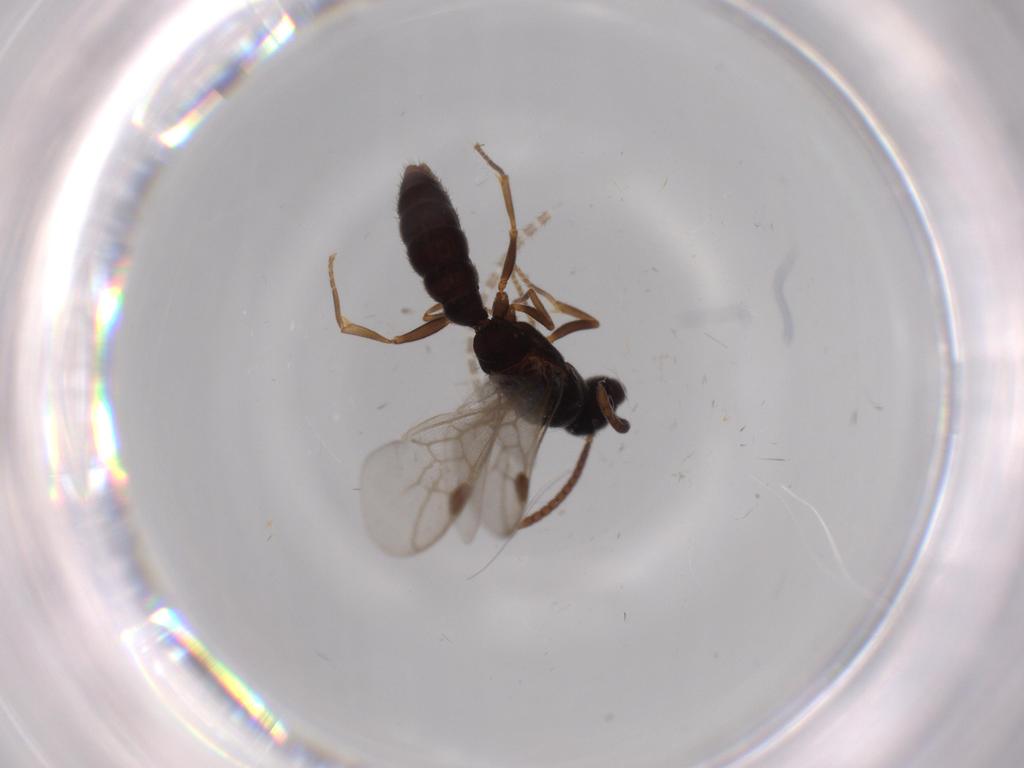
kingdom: Animalia
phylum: Arthropoda
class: Insecta
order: Hymenoptera
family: Formicidae
